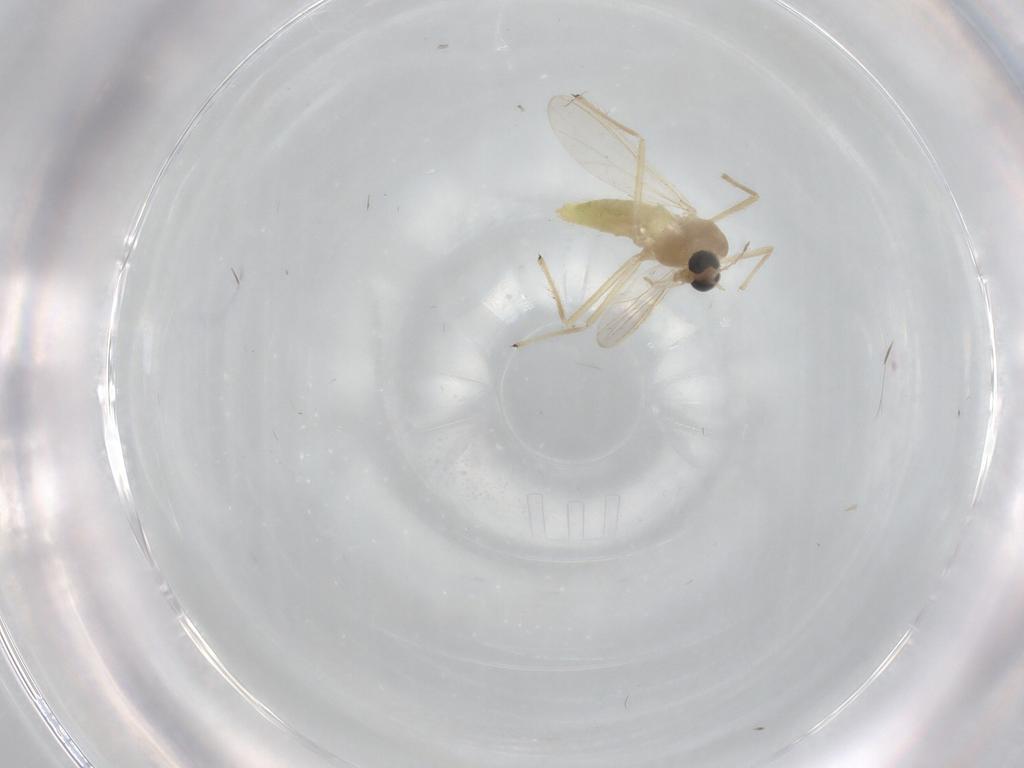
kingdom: Animalia
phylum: Arthropoda
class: Insecta
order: Diptera
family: Chironomidae
